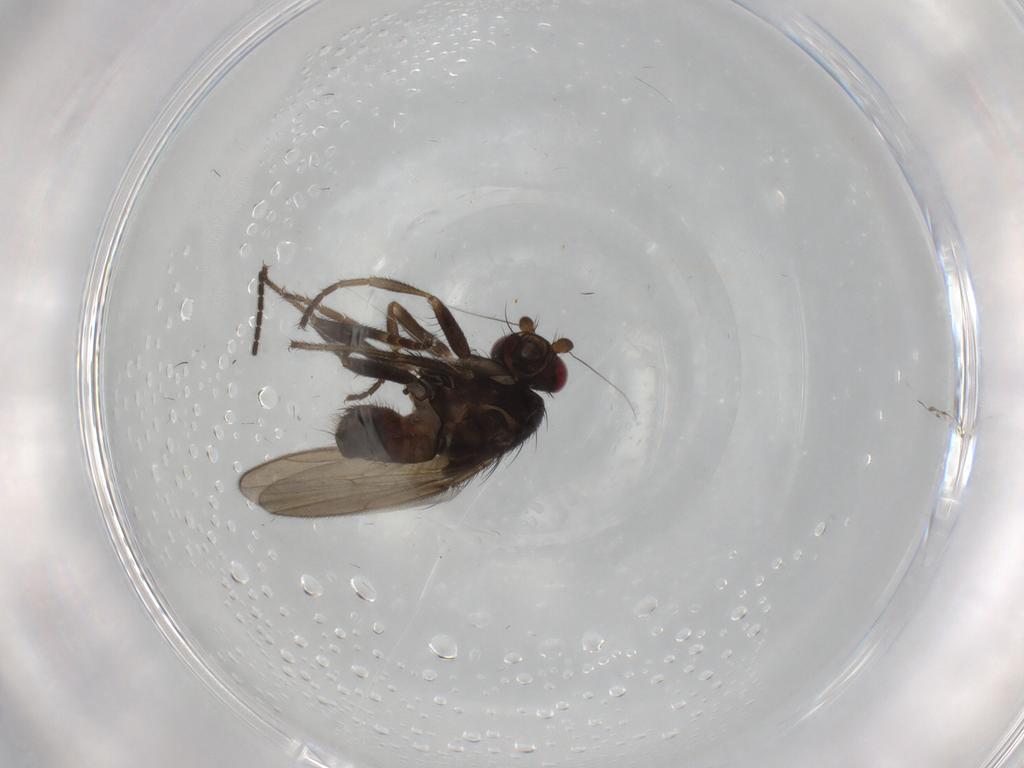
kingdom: Animalia
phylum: Arthropoda
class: Insecta
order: Diptera
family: Sphaeroceridae
